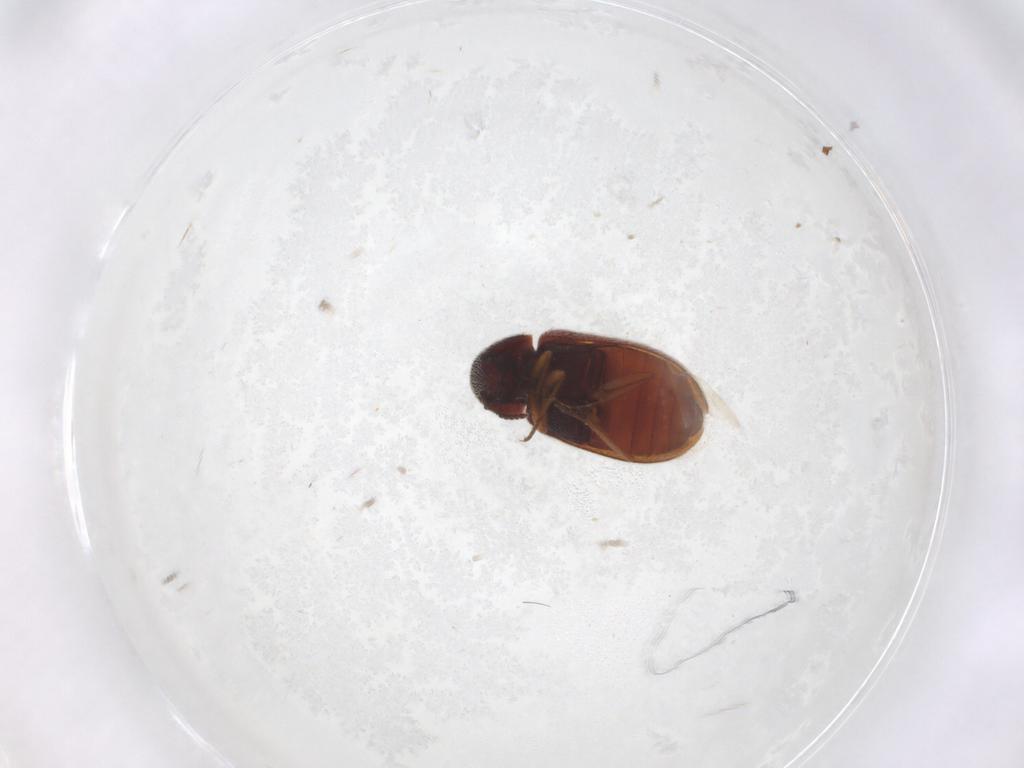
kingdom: Animalia
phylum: Arthropoda
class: Insecta
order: Coleoptera
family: Rhadalidae
